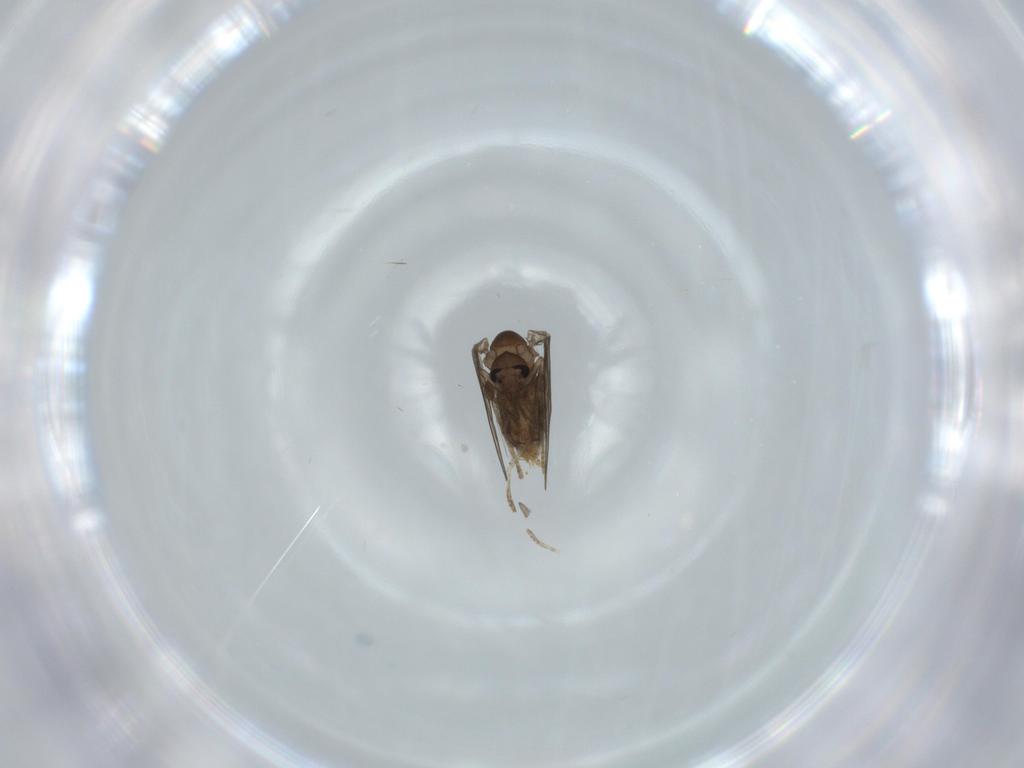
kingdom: Animalia
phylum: Arthropoda
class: Insecta
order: Diptera
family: Psychodidae
